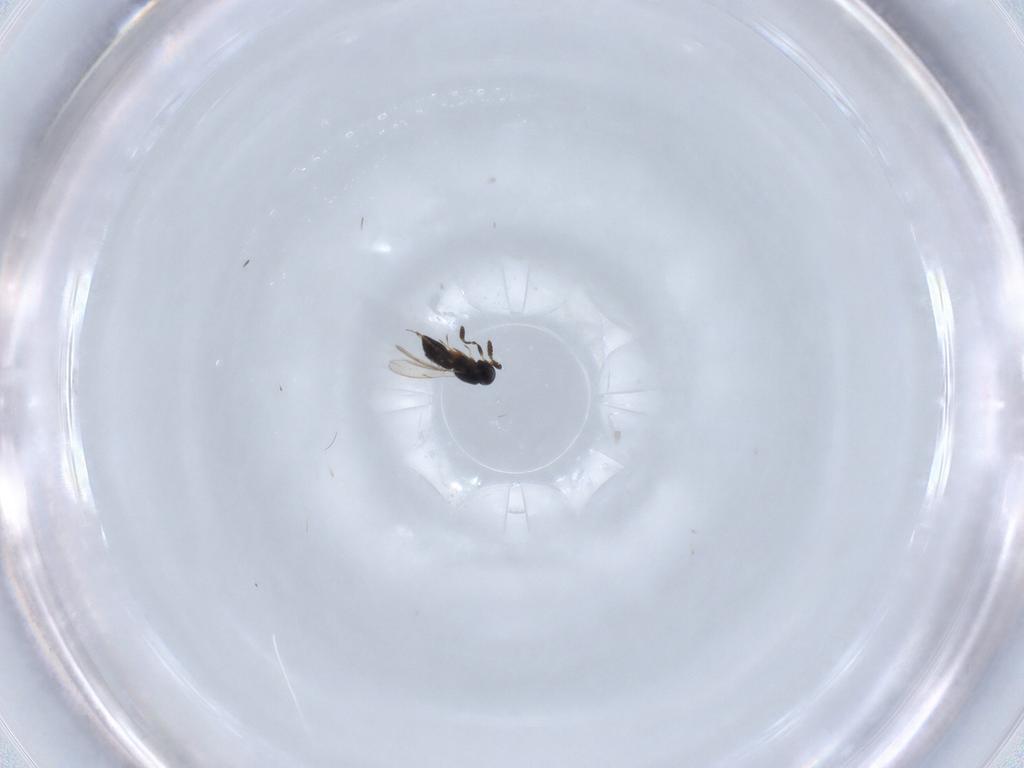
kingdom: Animalia
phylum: Arthropoda
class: Insecta
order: Hymenoptera
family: Scelionidae
